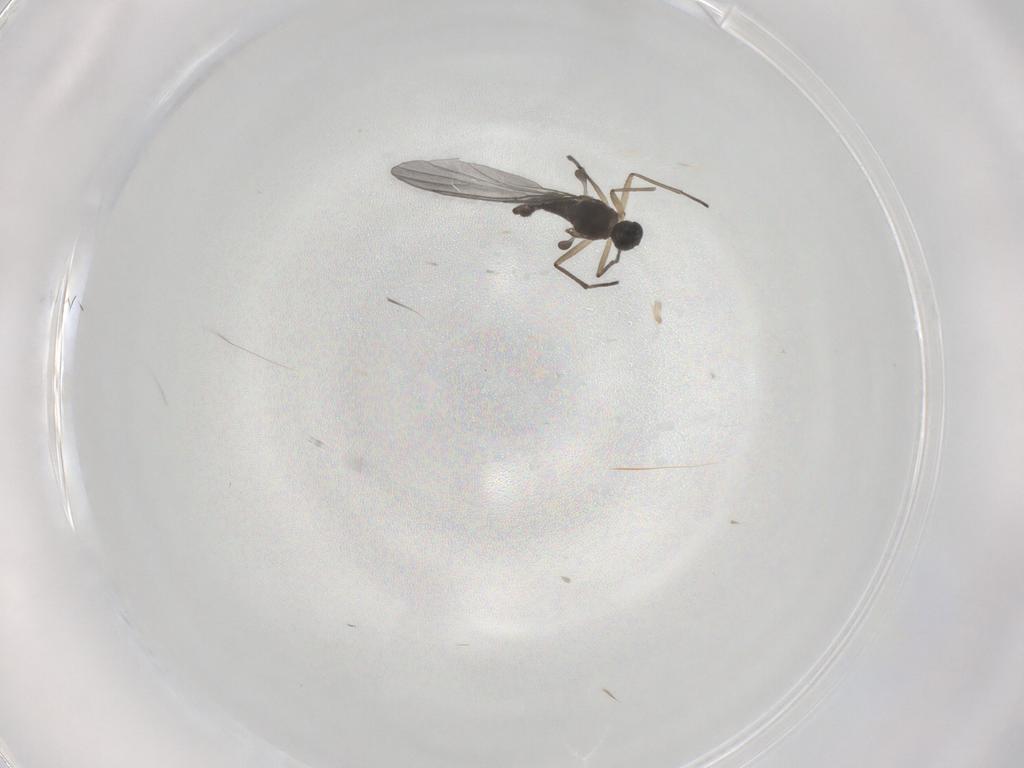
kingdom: Animalia
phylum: Arthropoda
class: Insecta
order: Diptera
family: Sciaridae
